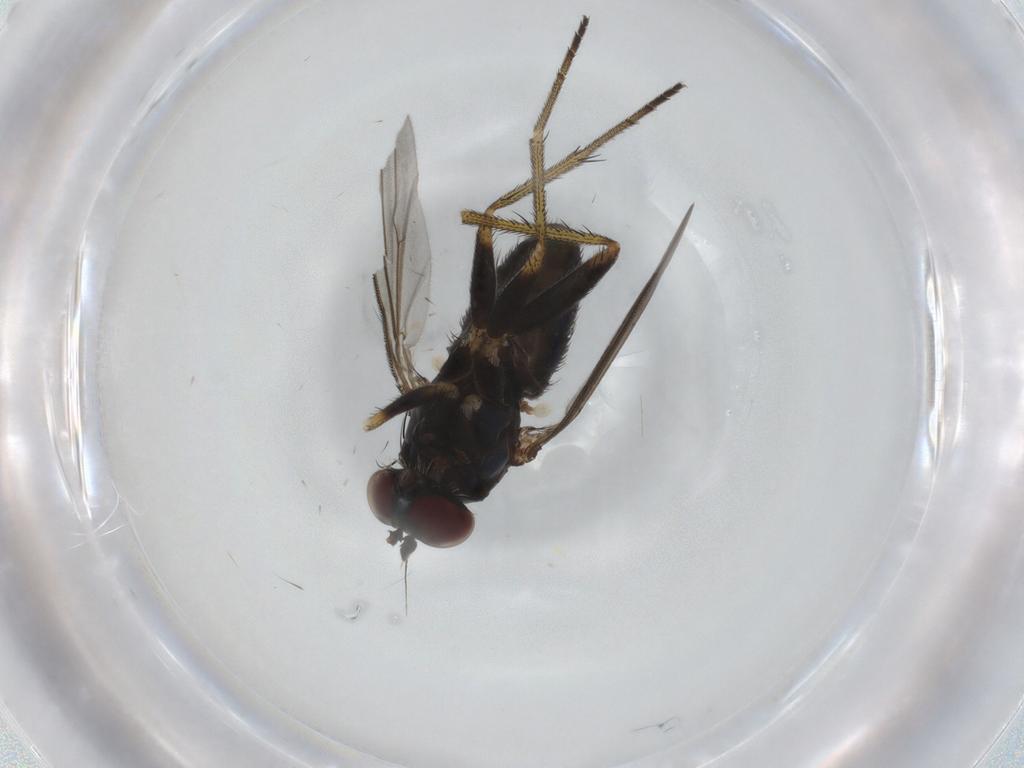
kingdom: Animalia
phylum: Arthropoda
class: Insecta
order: Diptera
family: Dolichopodidae
